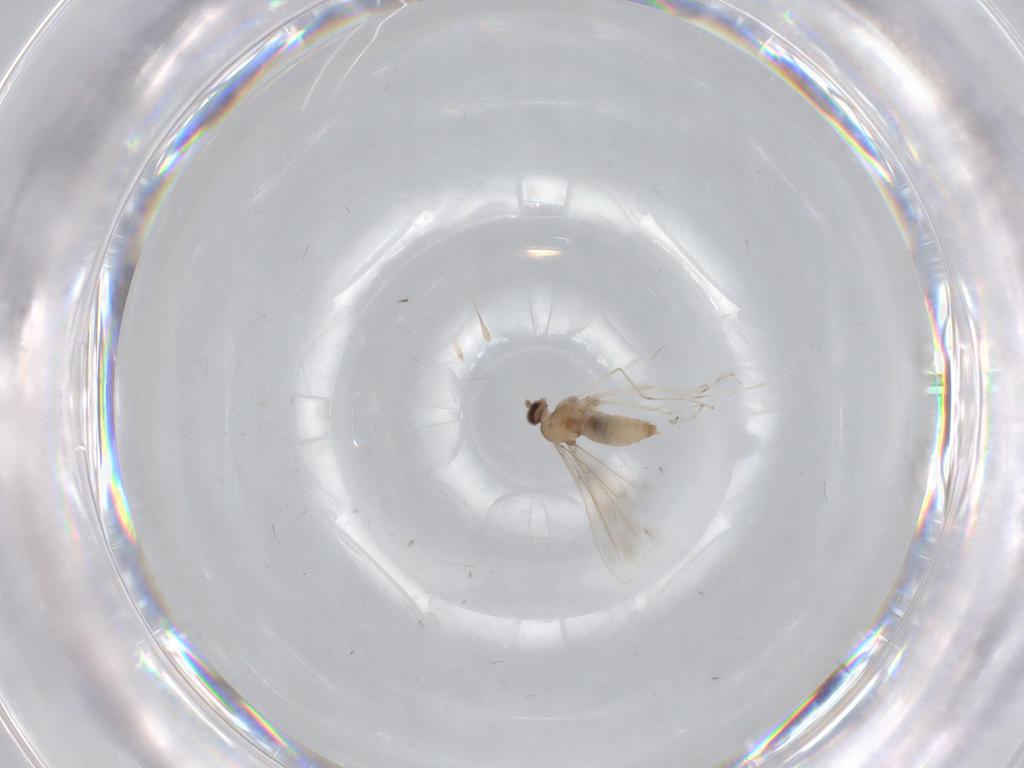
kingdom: Animalia
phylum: Arthropoda
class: Insecta
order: Diptera
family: Cecidomyiidae
